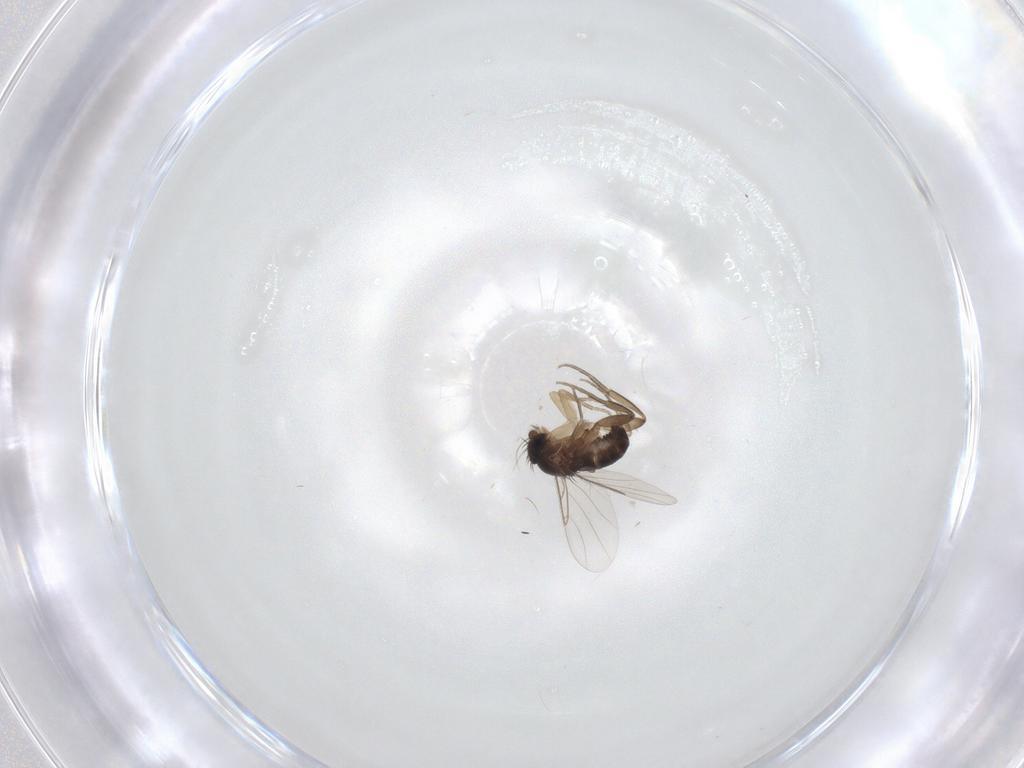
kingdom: Animalia
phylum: Arthropoda
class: Insecta
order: Diptera
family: Phoridae
